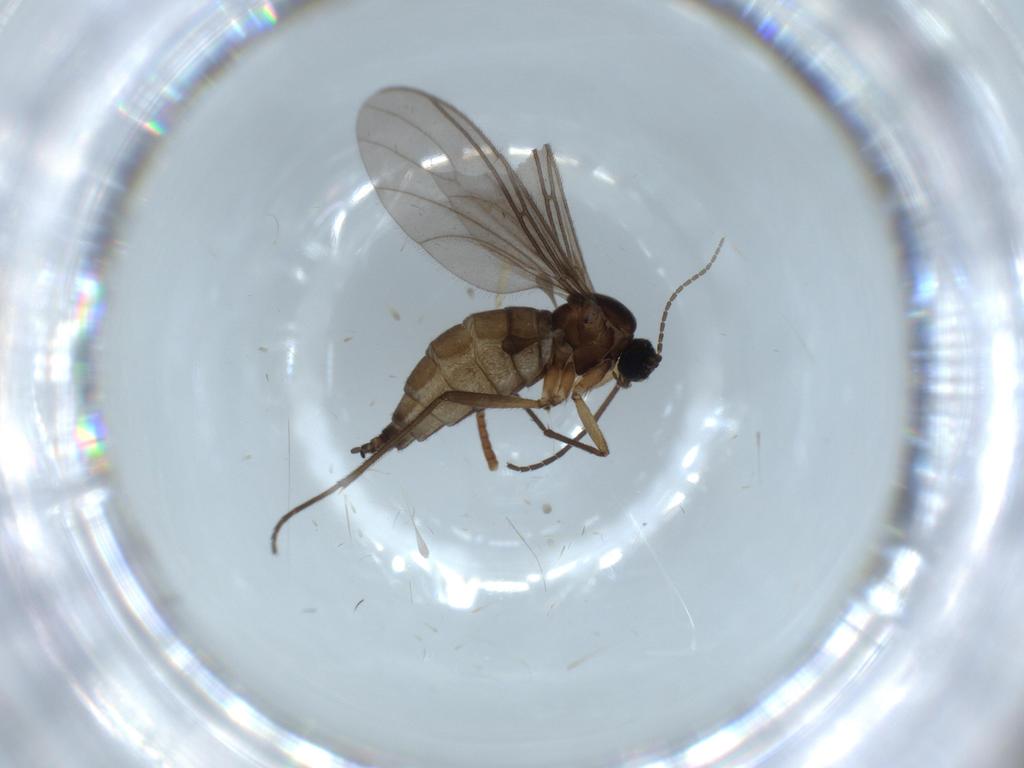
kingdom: Animalia
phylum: Arthropoda
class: Insecta
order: Diptera
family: Sciaridae
